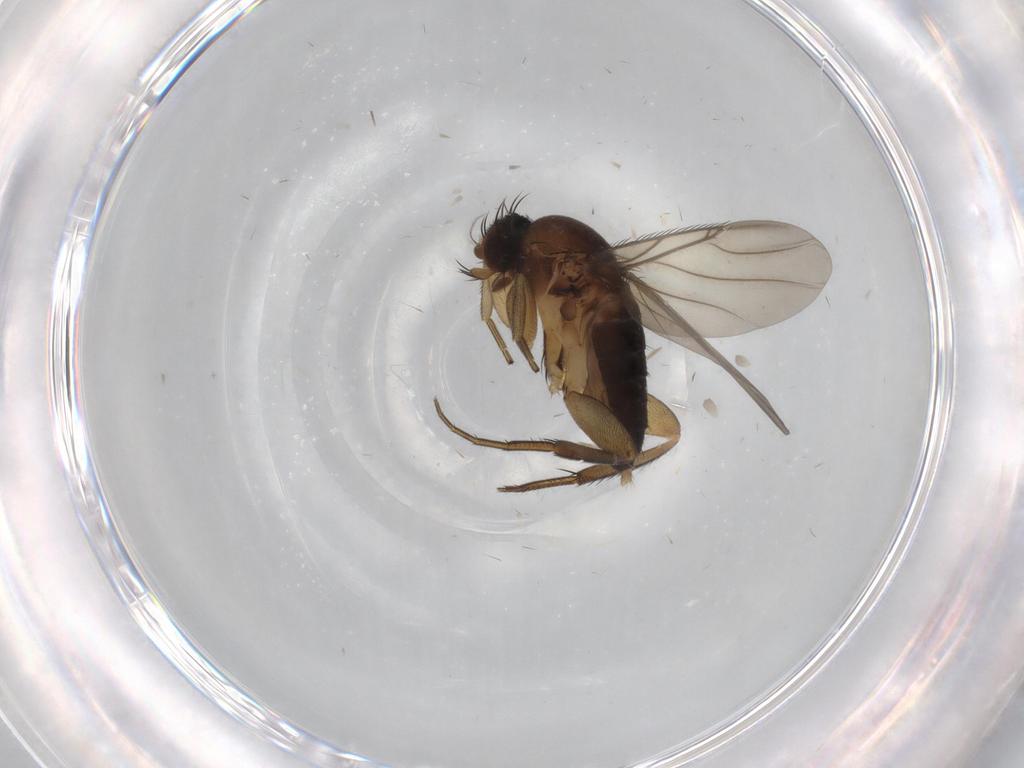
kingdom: Animalia
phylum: Arthropoda
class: Insecta
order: Diptera
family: Phoridae
